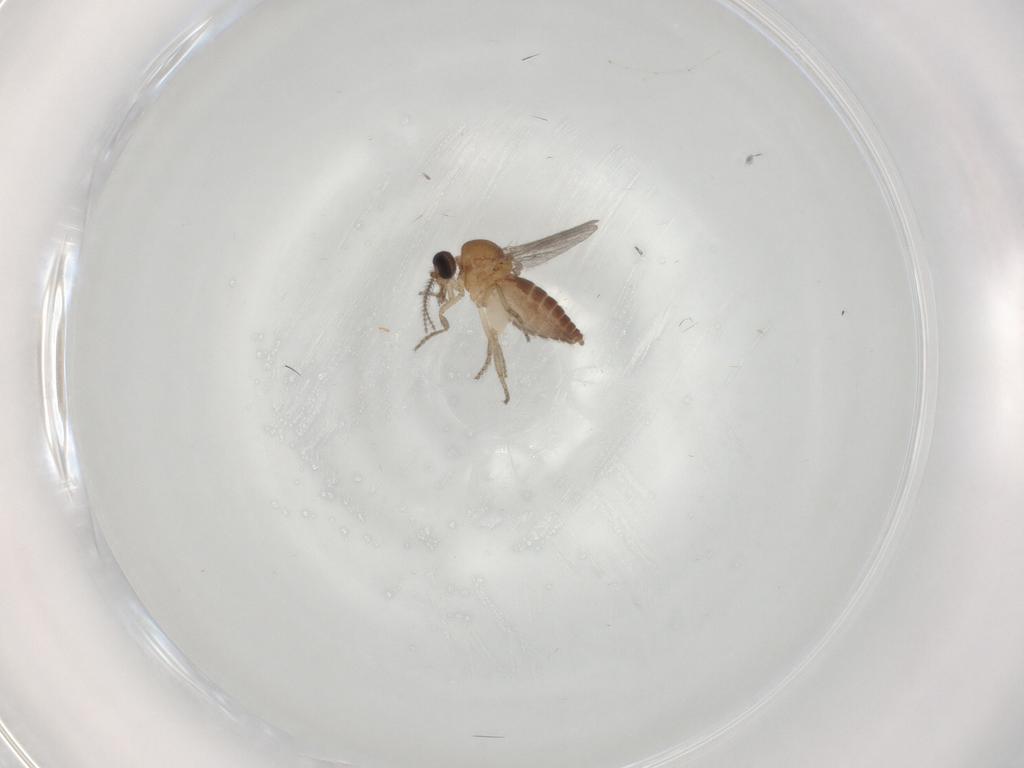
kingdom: Animalia
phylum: Arthropoda
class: Insecta
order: Diptera
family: Ceratopogonidae
